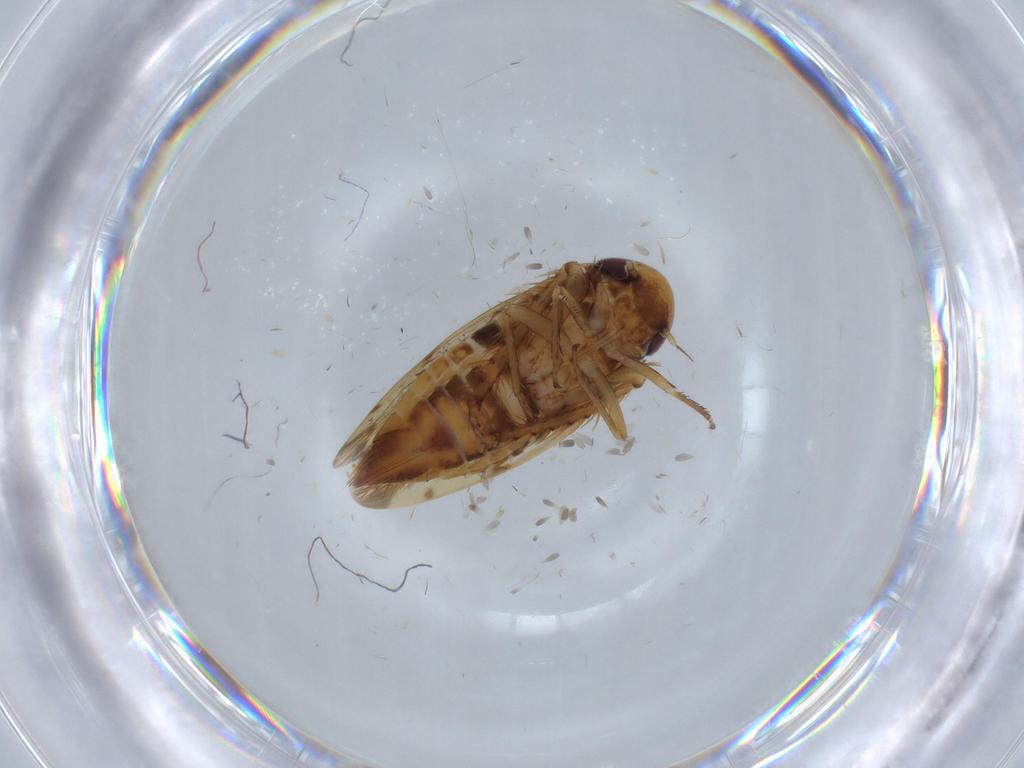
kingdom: Animalia
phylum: Arthropoda
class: Insecta
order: Hemiptera
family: Cicadellidae
